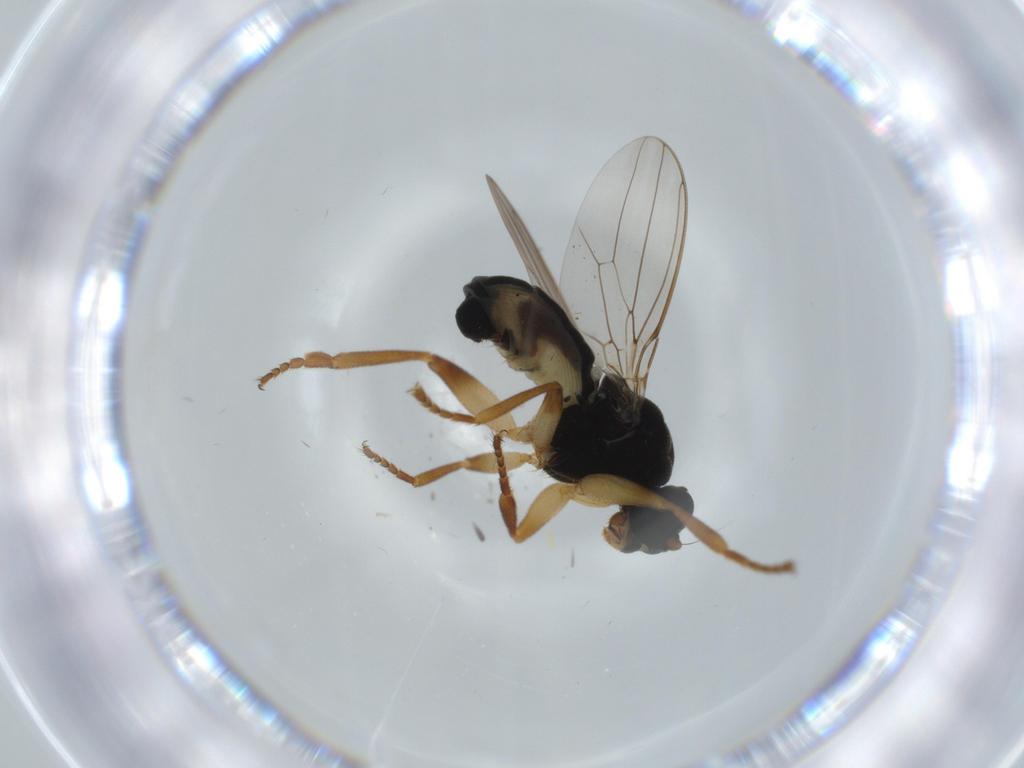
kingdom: Animalia
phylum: Arthropoda
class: Insecta
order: Diptera
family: Sphaeroceridae
